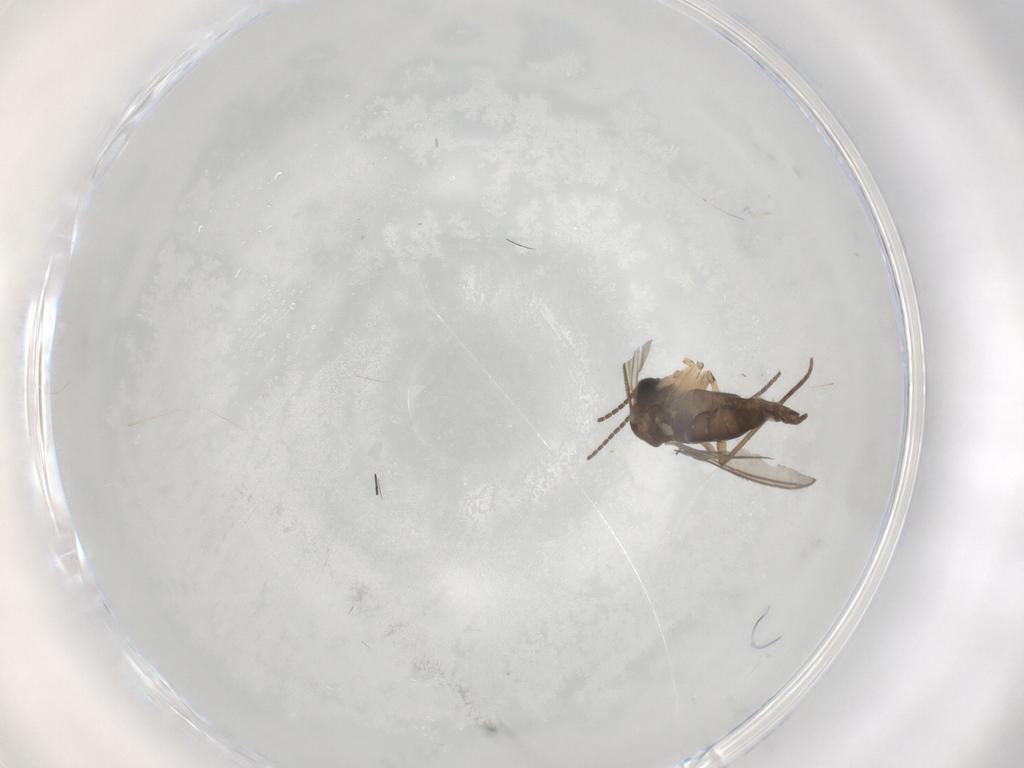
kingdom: Animalia
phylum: Arthropoda
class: Insecta
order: Diptera
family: Sciaridae
